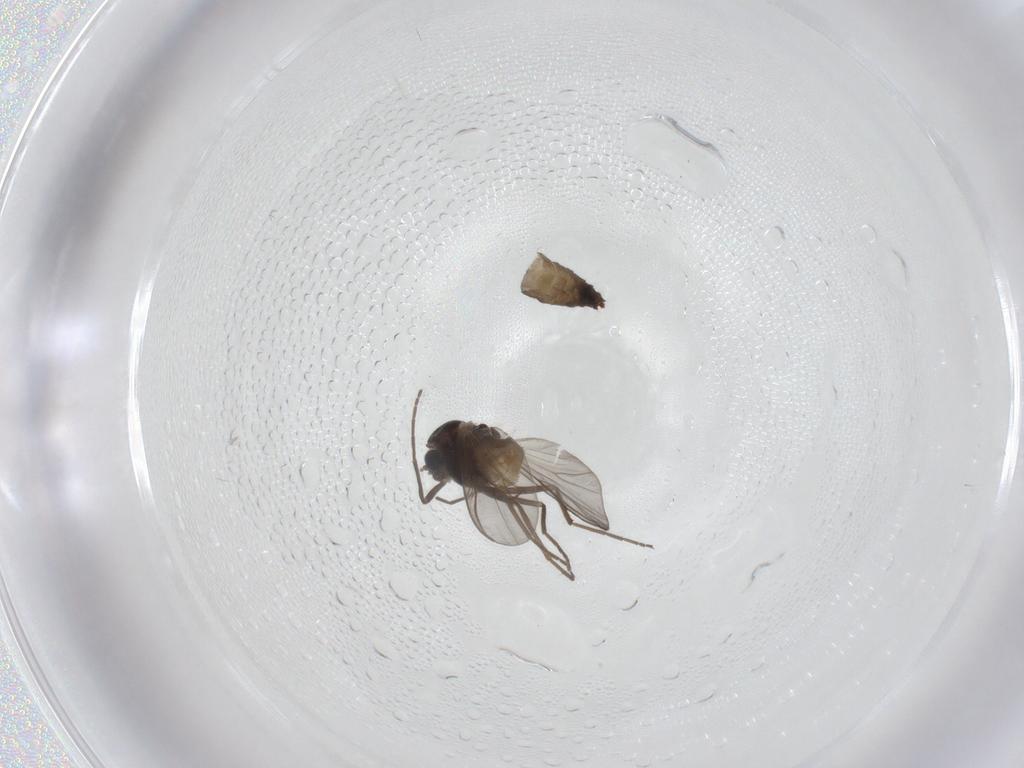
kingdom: Animalia
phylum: Arthropoda
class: Insecta
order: Diptera
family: Chironomidae
